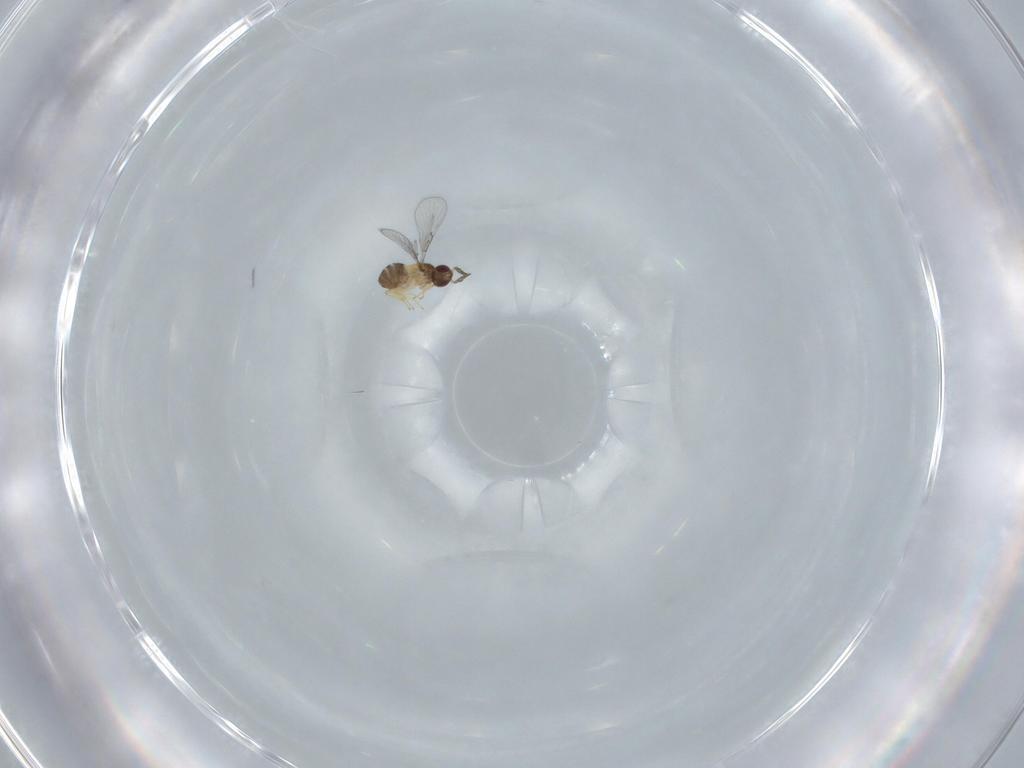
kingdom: Animalia
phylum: Arthropoda
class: Insecta
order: Hymenoptera
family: Trichogrammatidae
